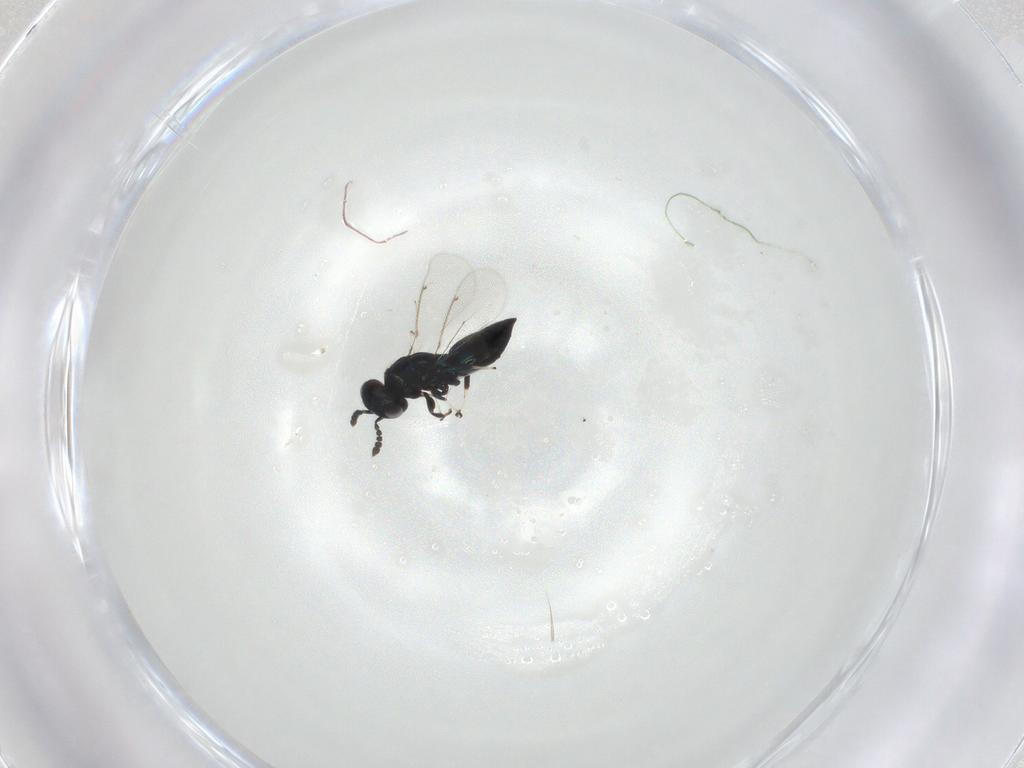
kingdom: Animalia
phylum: Arthropoda
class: Insecta
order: Hymenoptera
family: Eulophidae
